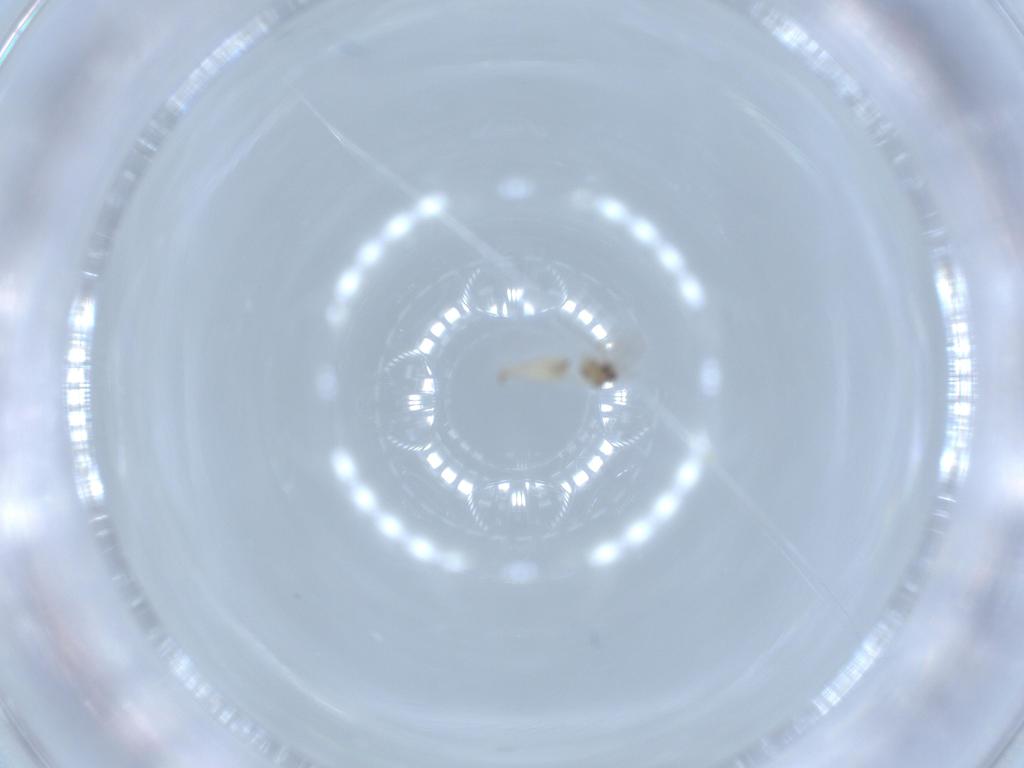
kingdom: Animalia
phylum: Arthropoda
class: Insecta
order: Diptera
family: Cecidomyiidae
